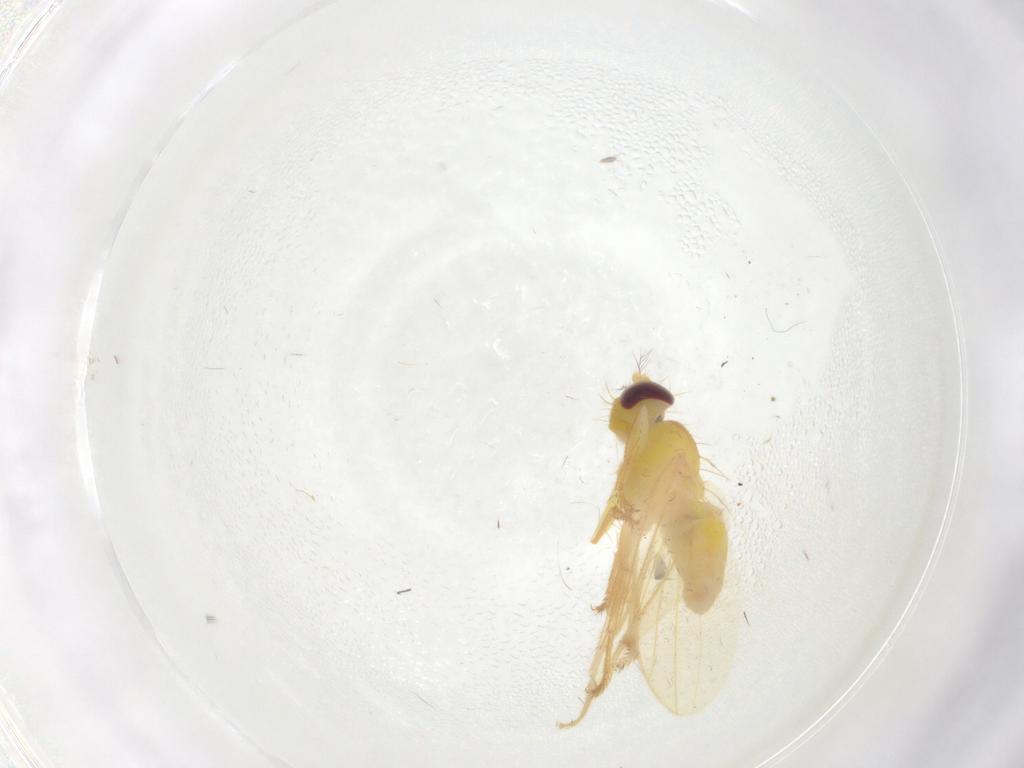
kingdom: Animalia
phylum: Arthropoda
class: Insecta
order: Diptera
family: Periscelididae
